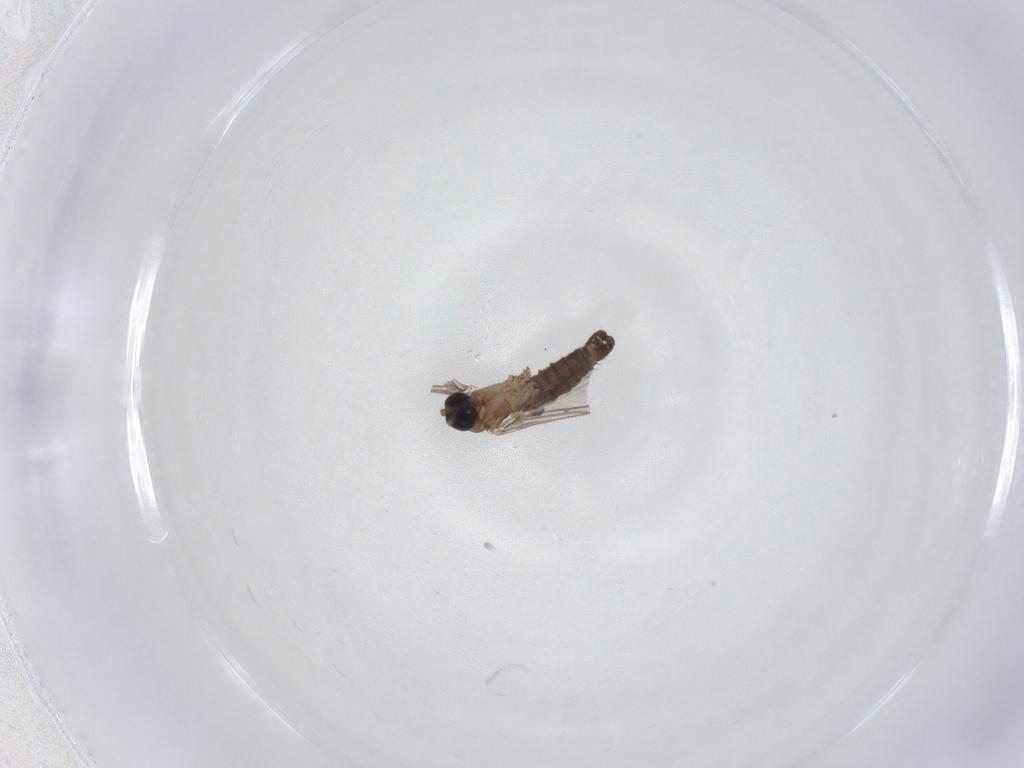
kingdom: Animalia
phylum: Arthropoda
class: Insecta
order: Diptera
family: Sciaridae
